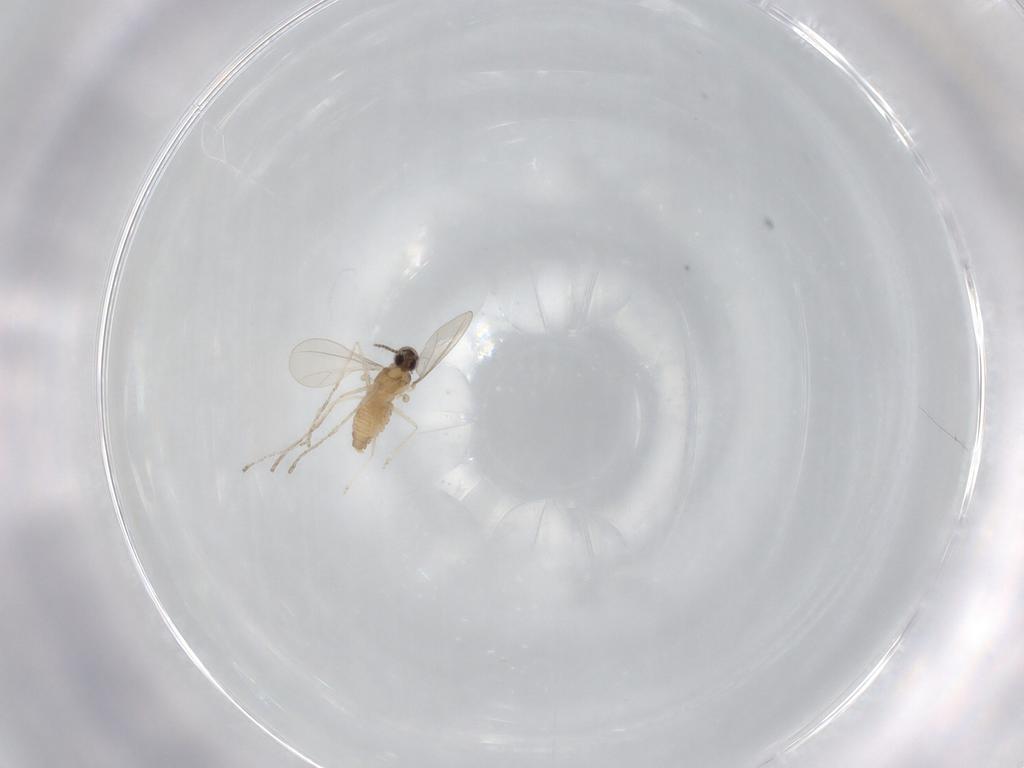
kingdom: Animalia
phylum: Arthropoda
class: Insecta
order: Diptera
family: Cecidomyiidae
